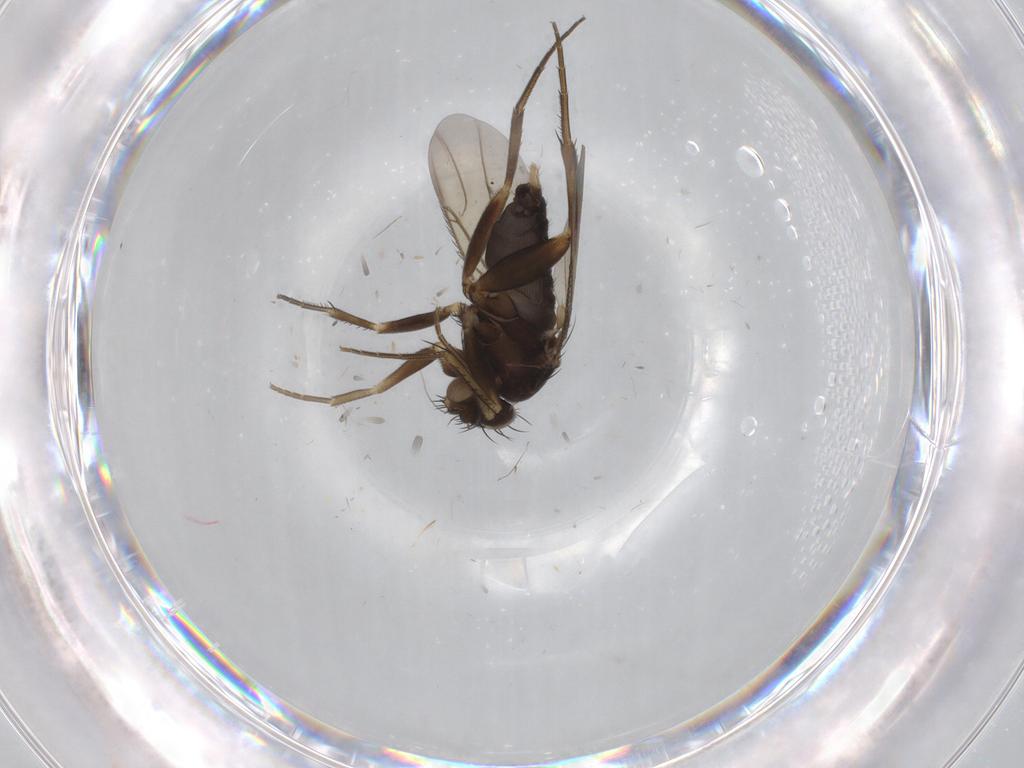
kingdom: Animalia
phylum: Arthropoda
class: Insecta
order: Diptera
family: Phoridae
